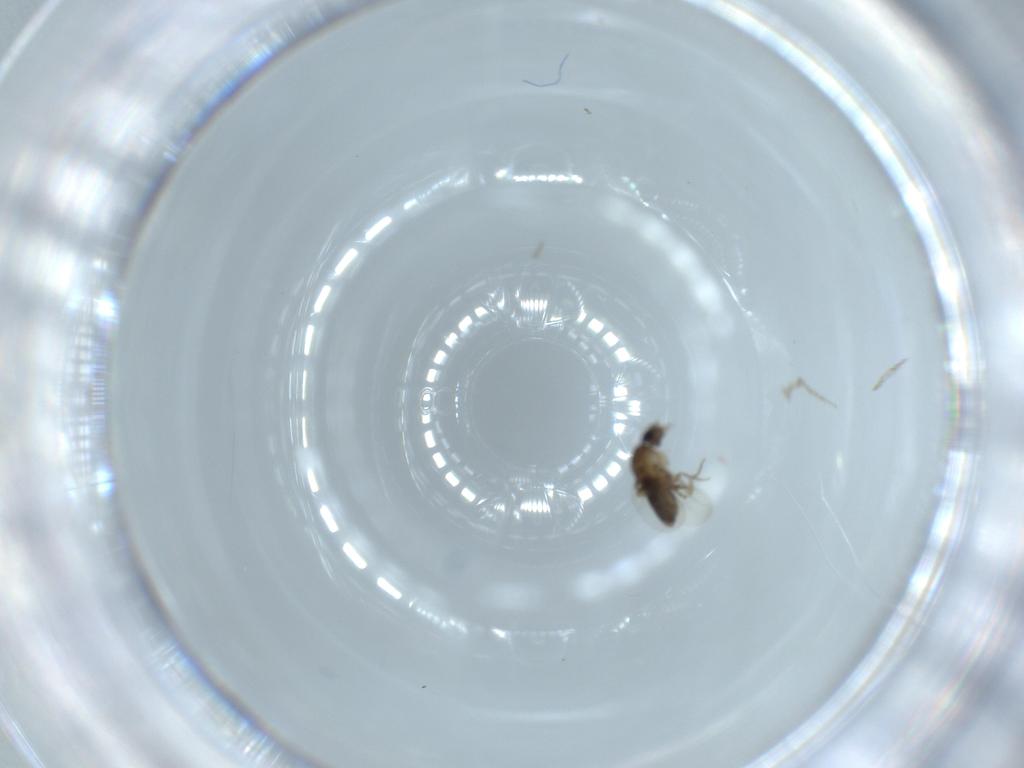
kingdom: Animalia
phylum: Arthropoda
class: Insecta
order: Diptera
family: Phoridae
